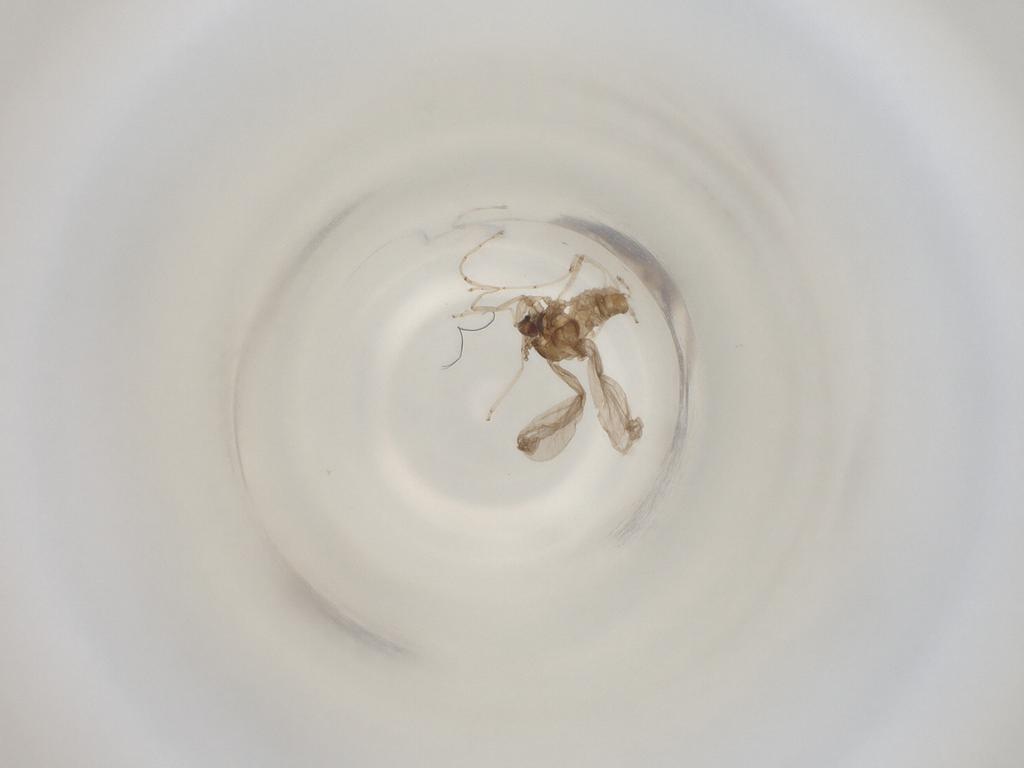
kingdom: Animalia
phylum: Arthropoda
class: Insecta
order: Diptera
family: Cecidomyiidae
